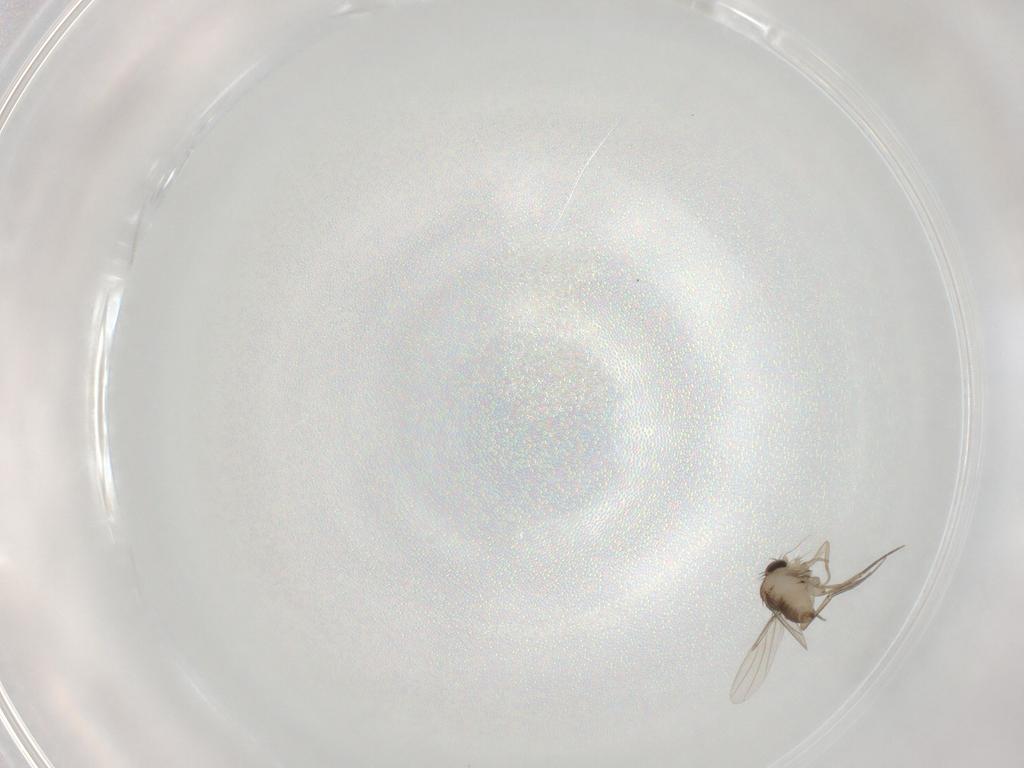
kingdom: Animalia
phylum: Arthropoda
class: Insecta
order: Diptera
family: Phoridae
